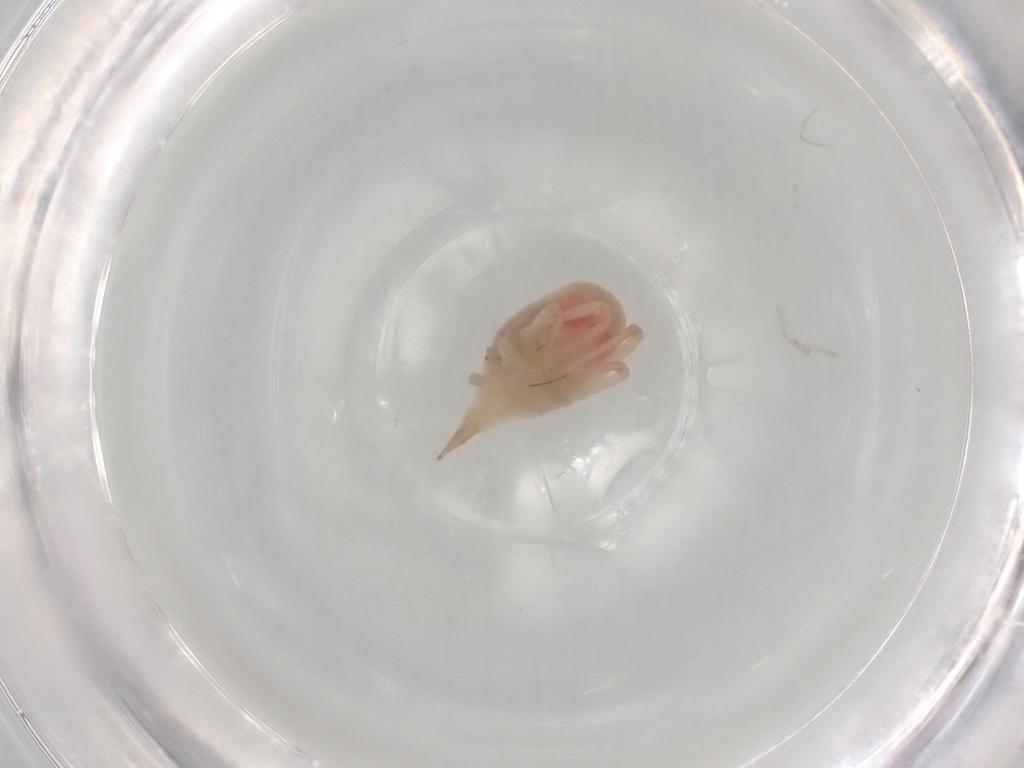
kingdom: Animalia
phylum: Arthropoda
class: Arachnida
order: Trombidiformes
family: Bdellidae
